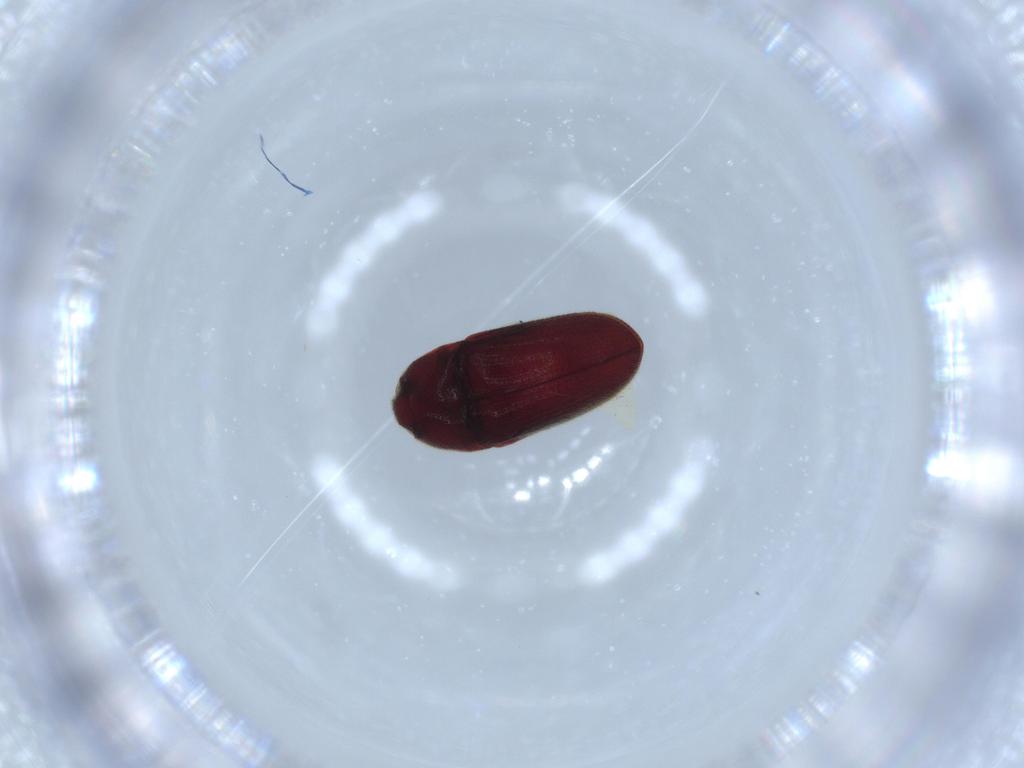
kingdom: Animalia
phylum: Arthropoda
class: Insecta
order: Coleoptera
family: Throscidae
